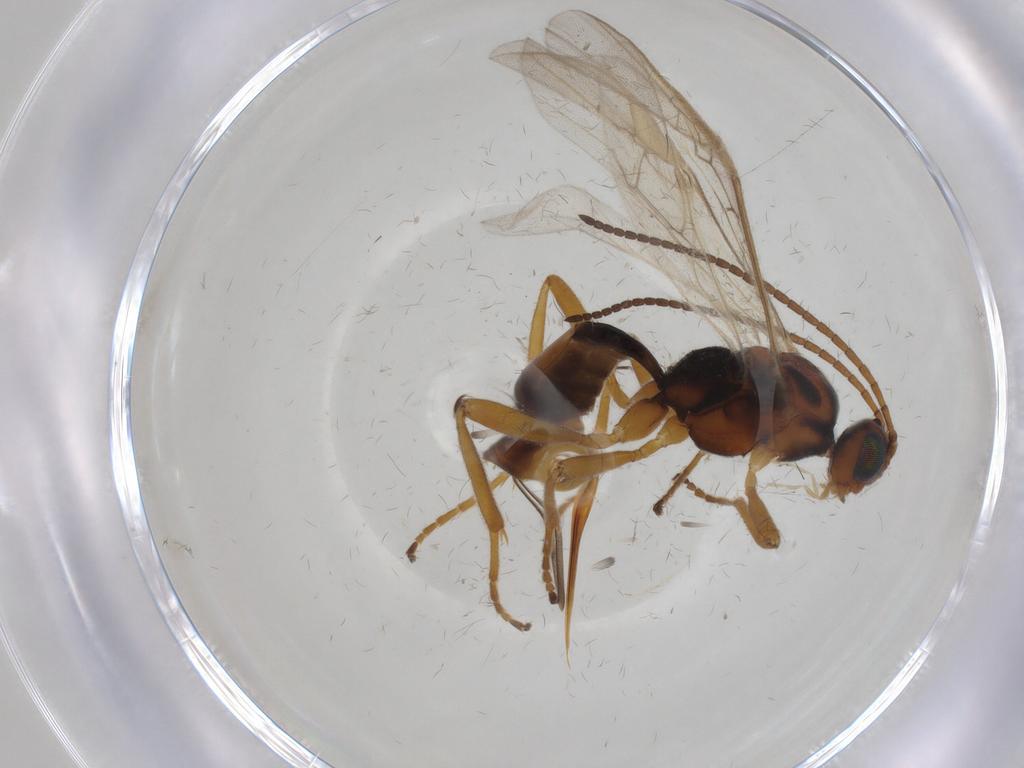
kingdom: Animalia
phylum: Arthropoda
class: Insecta
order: Hymenoptera
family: Braconidae
